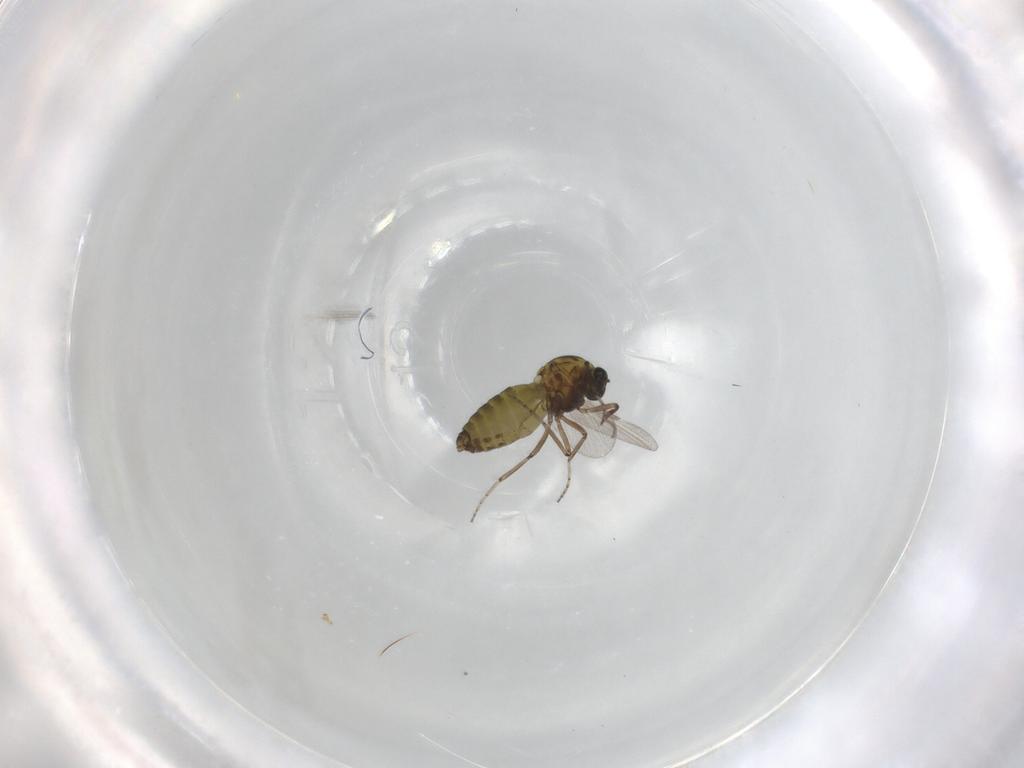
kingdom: Animalia
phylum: Arthropoda
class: Insecta
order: Diptera
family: Ceratopogonidae
